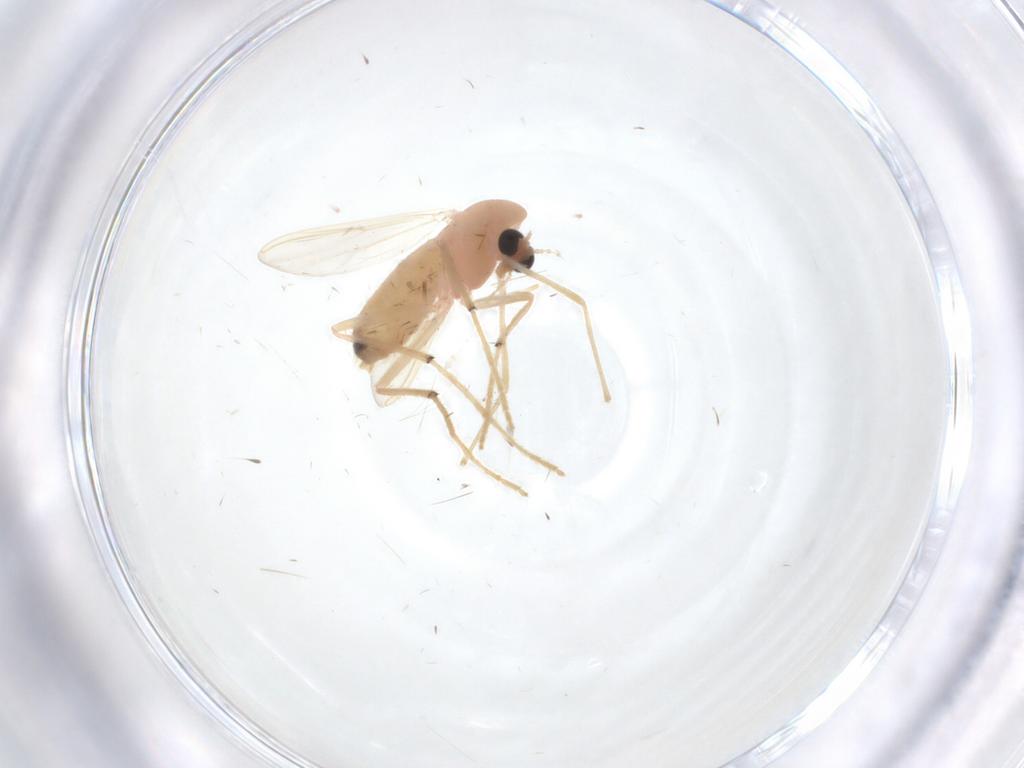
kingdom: Animalia
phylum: Arthropoda
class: Insecta
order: Diptera
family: Chironomidae
